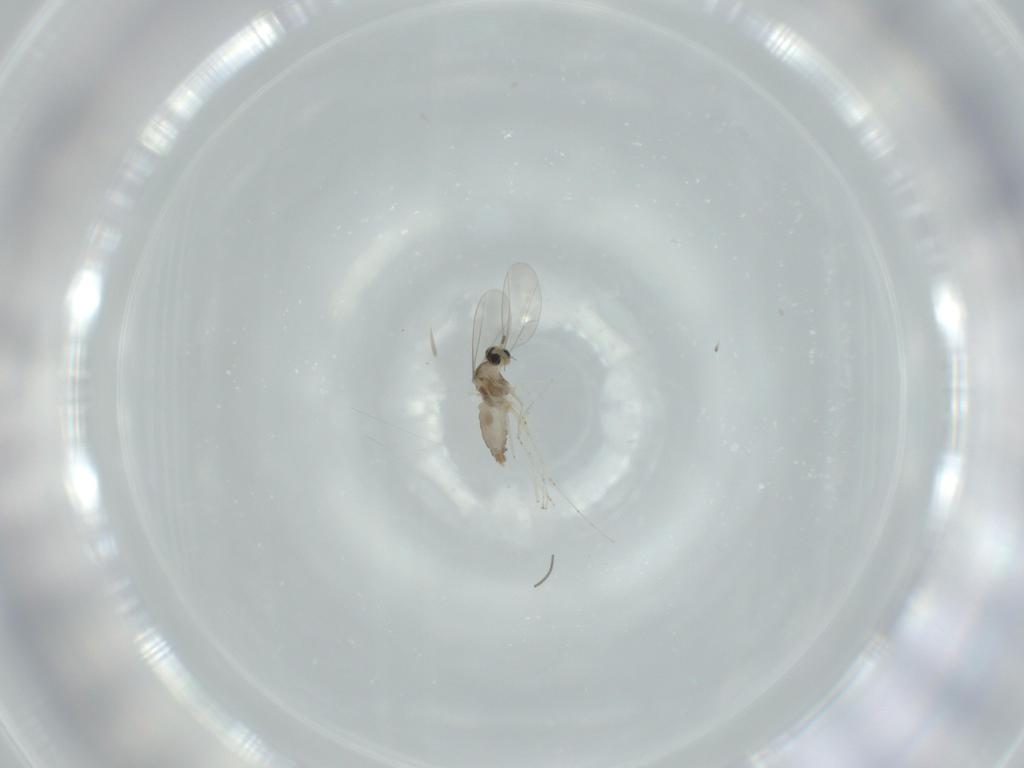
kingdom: Animalia
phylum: Arthropoda
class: Insecta
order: Diptera
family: Cecidomyiidae
